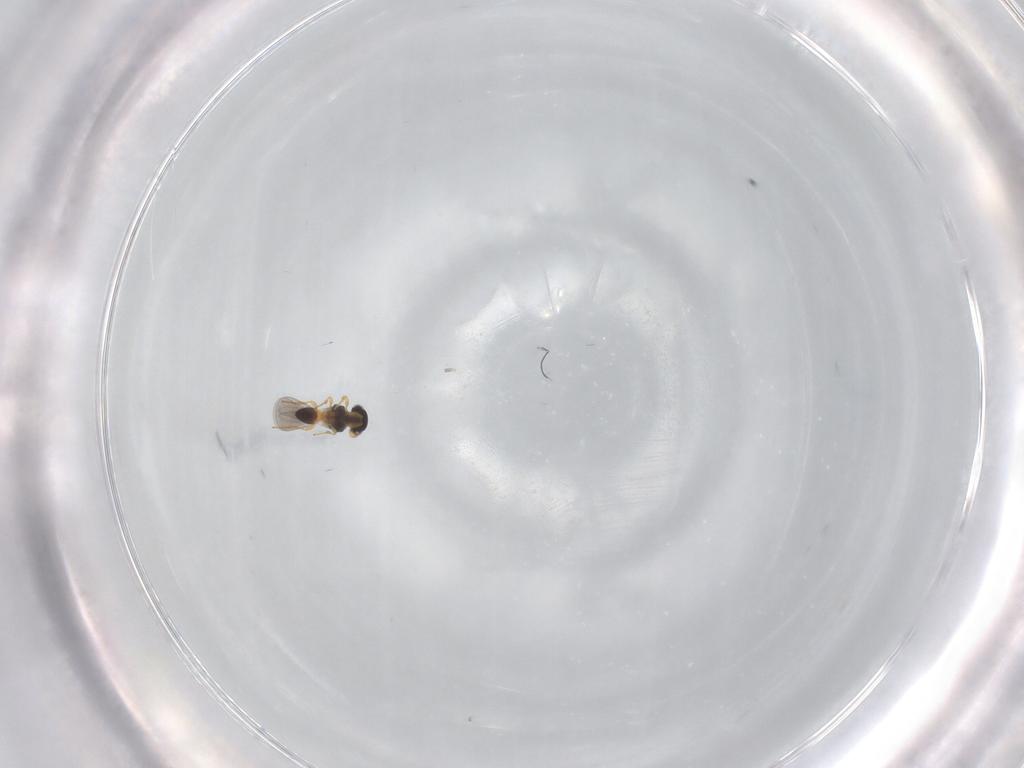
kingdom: Animalia
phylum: Arthropoda
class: Insecta
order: Hymenoptera
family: Platygastridae
